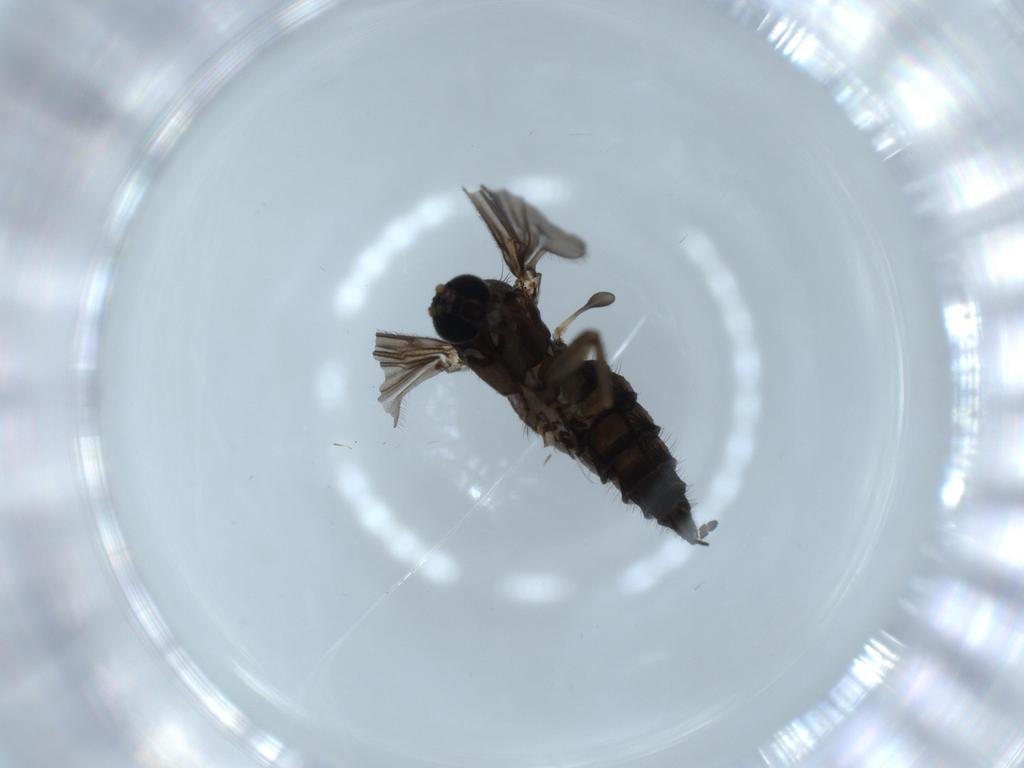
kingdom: Animalia
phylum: Arthropoda
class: Insecta
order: Diptera
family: Sciaridae
